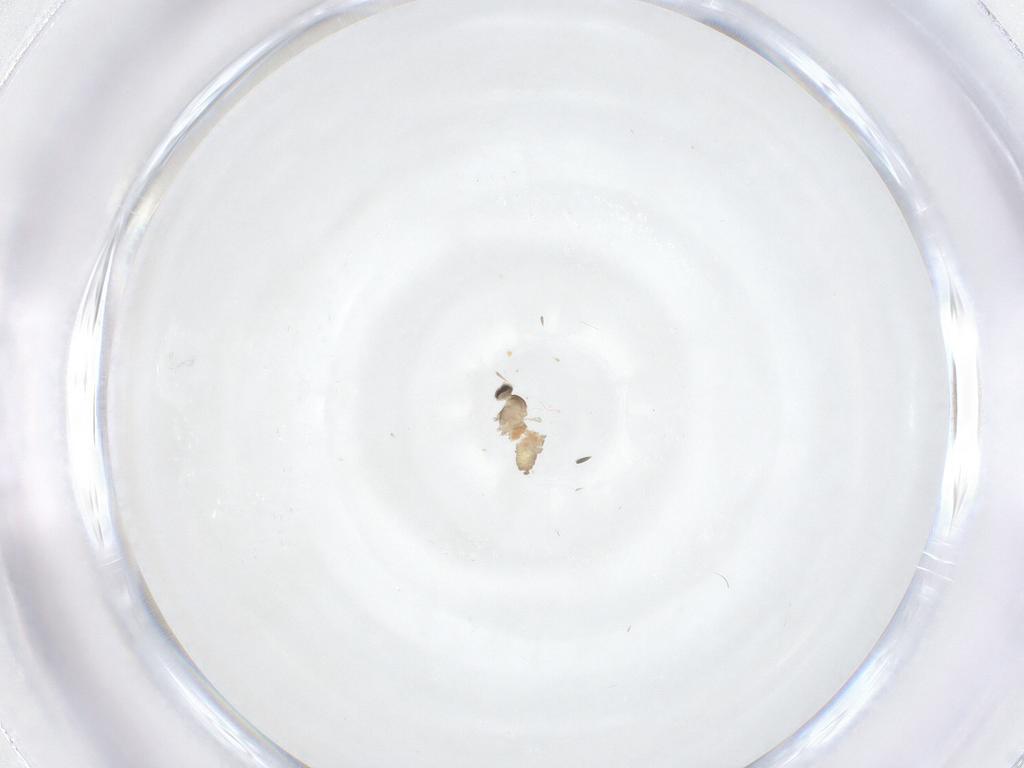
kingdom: Animalia
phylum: Arthropoda
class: Insecta
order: Diptera
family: Cecidomyiidae
